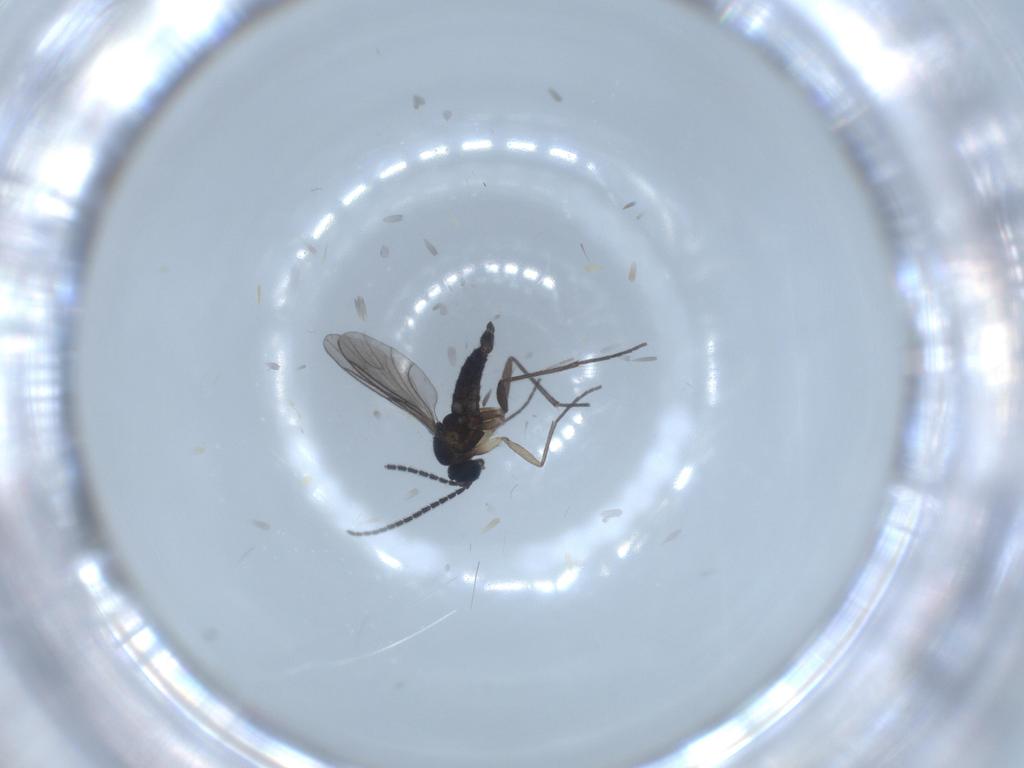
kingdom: Animalia
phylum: Arthropoda
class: Insecta
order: Diptera
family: Sciaridae
